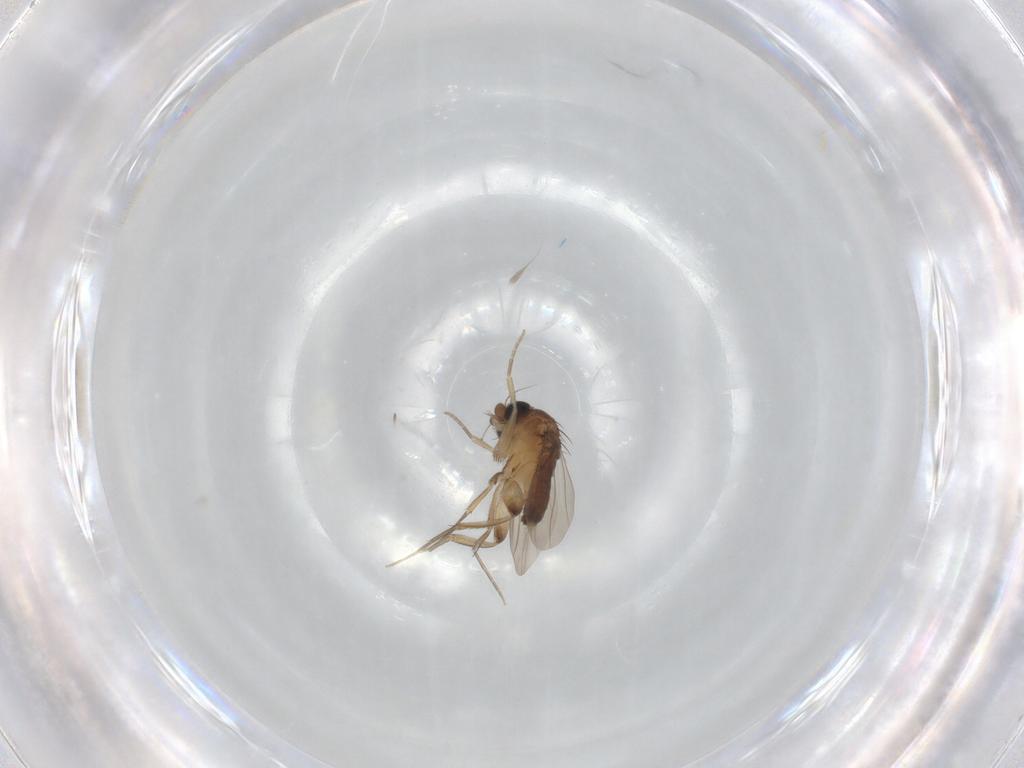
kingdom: Animalia
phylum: Arthropoda
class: Insecta
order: Diptera
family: Phoridae
